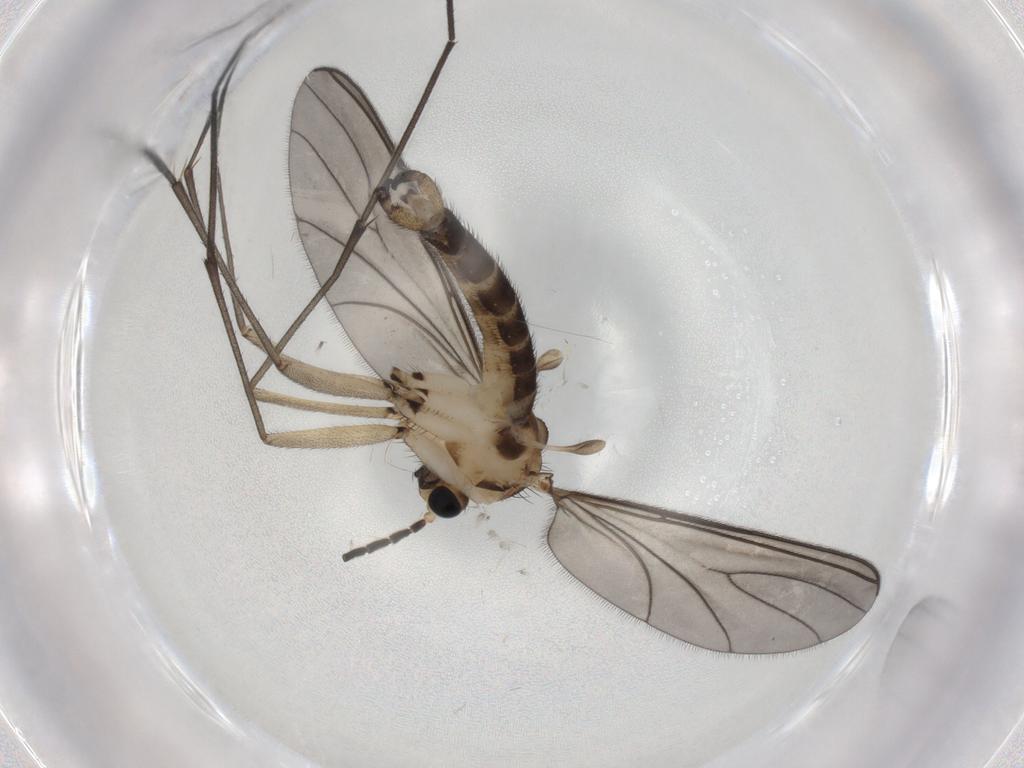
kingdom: Animalia
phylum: Arthropoda
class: Insecta
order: Diptera
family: Sciaridae
